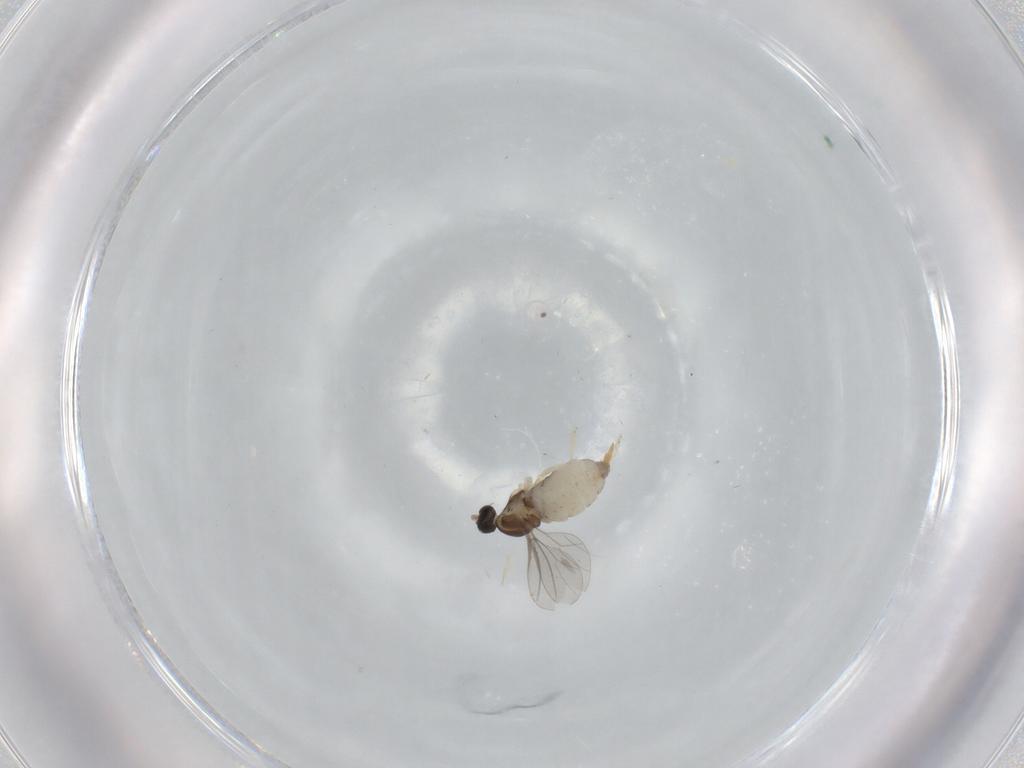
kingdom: Animalia
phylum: Arthropoda
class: Insecta
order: Diptera
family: Cecidomyiidae
